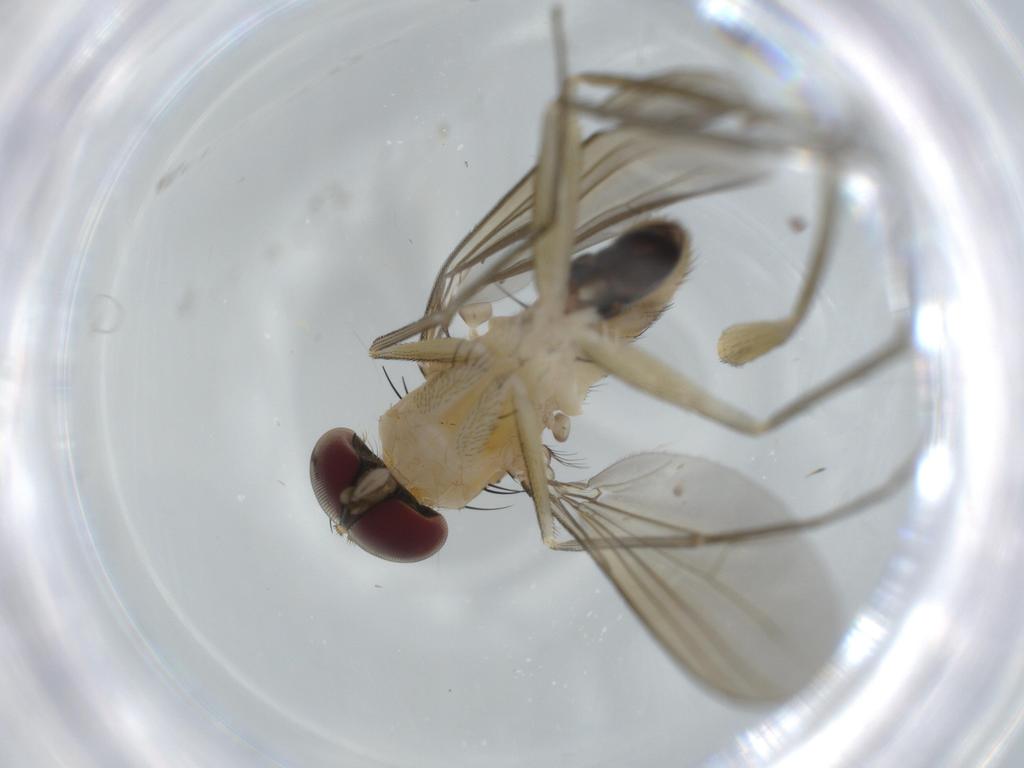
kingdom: Animalia
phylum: Arthropoda
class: Insecta
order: Diptera
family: Dolichopodidae
